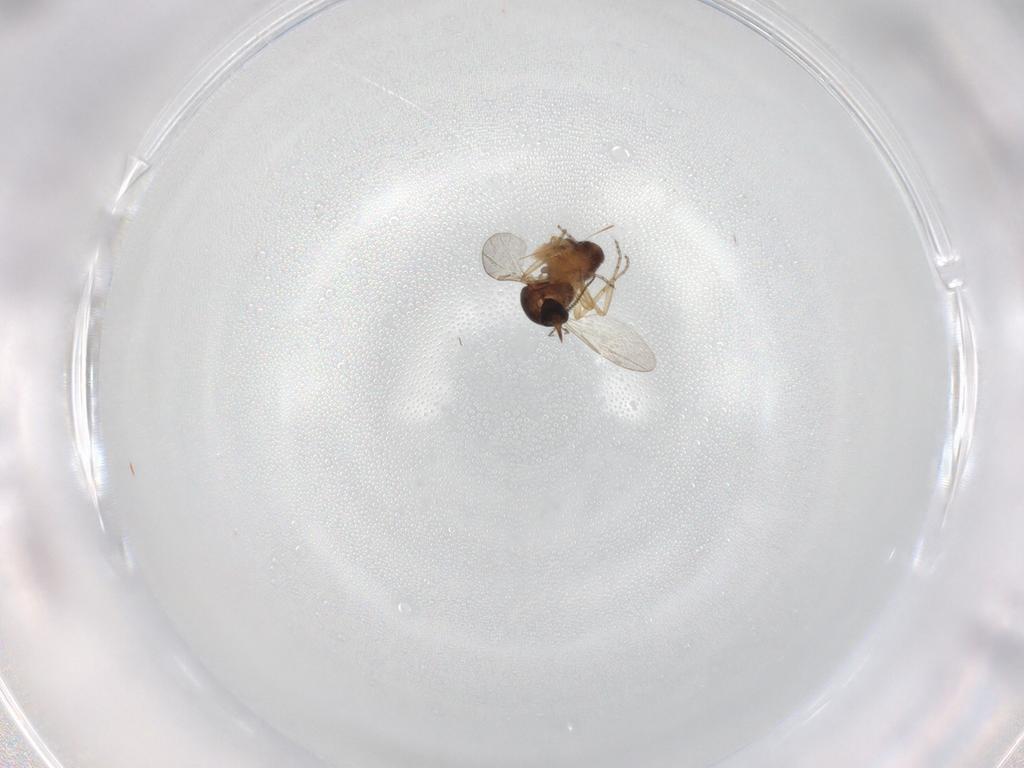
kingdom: Animalia
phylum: Arthropoda
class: Insecta
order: Diptera
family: Ceratopogonidae
